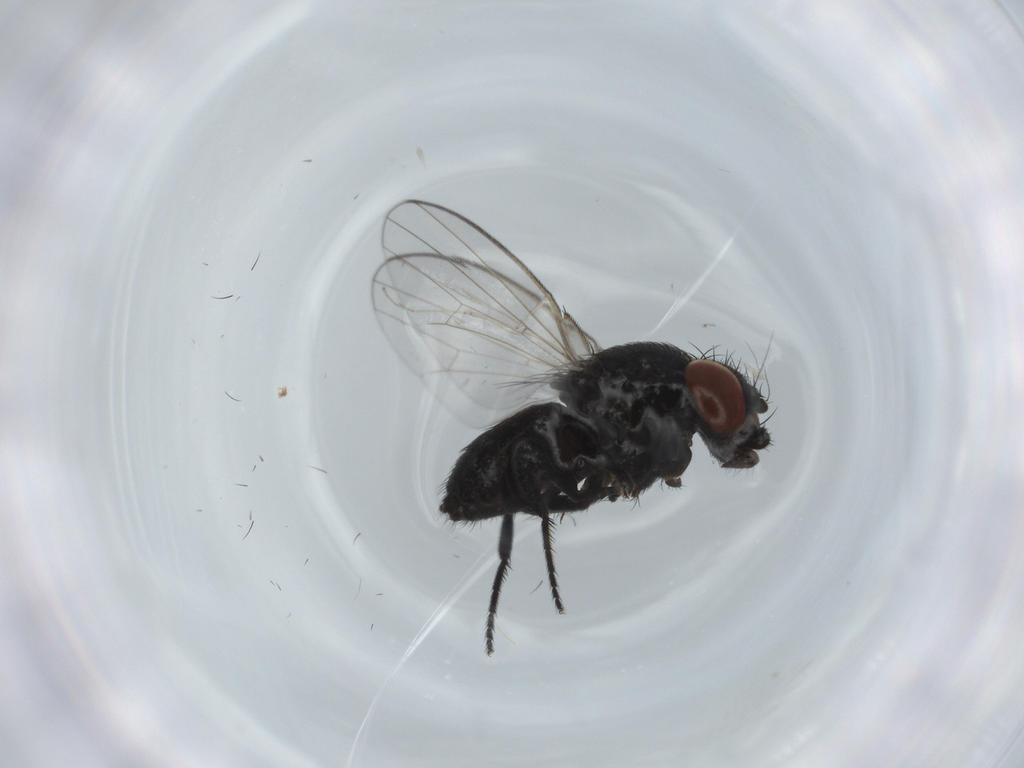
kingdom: Animalia
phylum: Arthropoda
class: Insecta
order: Diptera
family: Milichiidae
